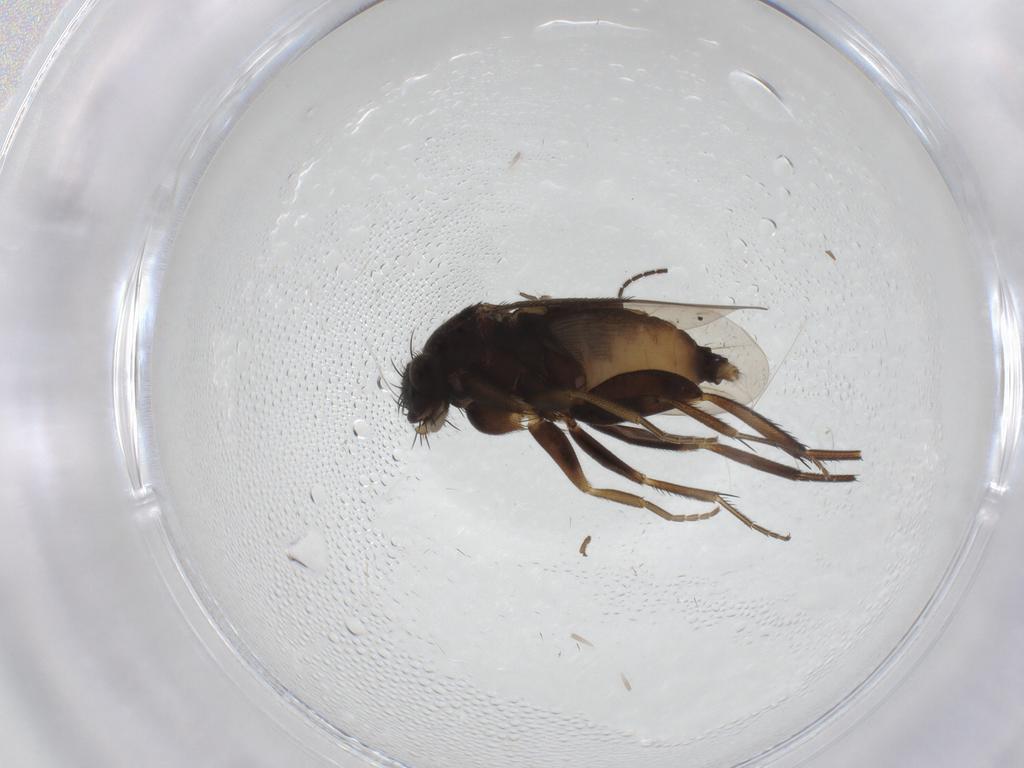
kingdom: Animalia
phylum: Arthropoda
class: Insecta
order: Diptera
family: Phoridae
